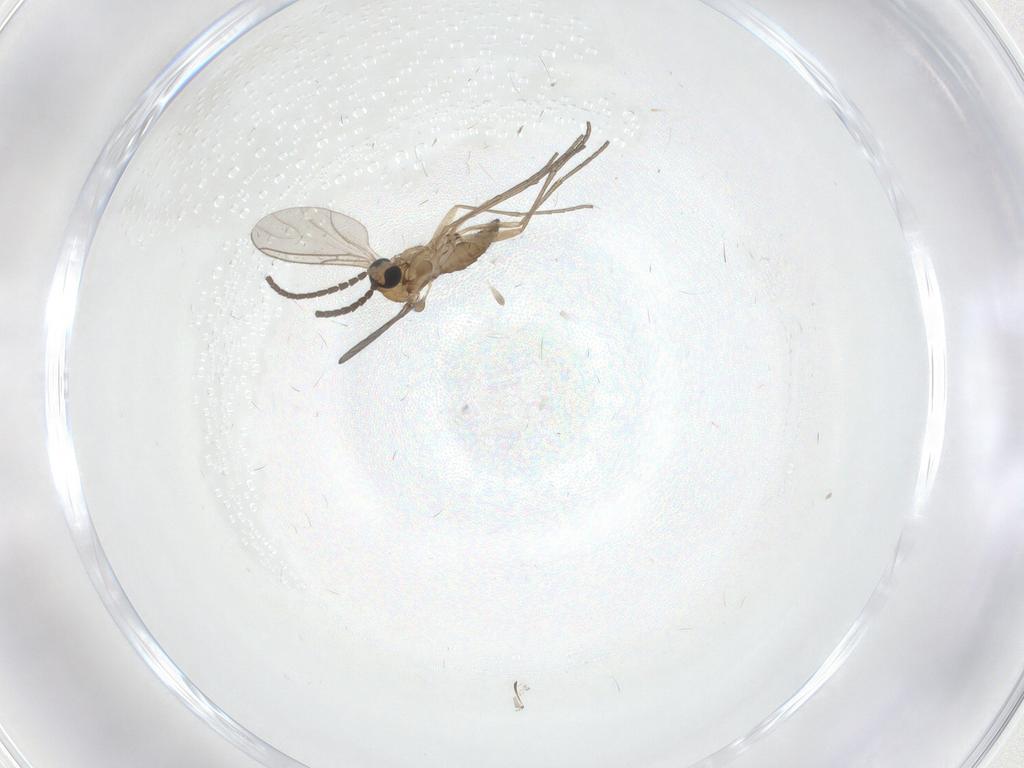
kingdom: Animalia
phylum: Arthropoda
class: Insecta
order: Diptera
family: Sciaridae
